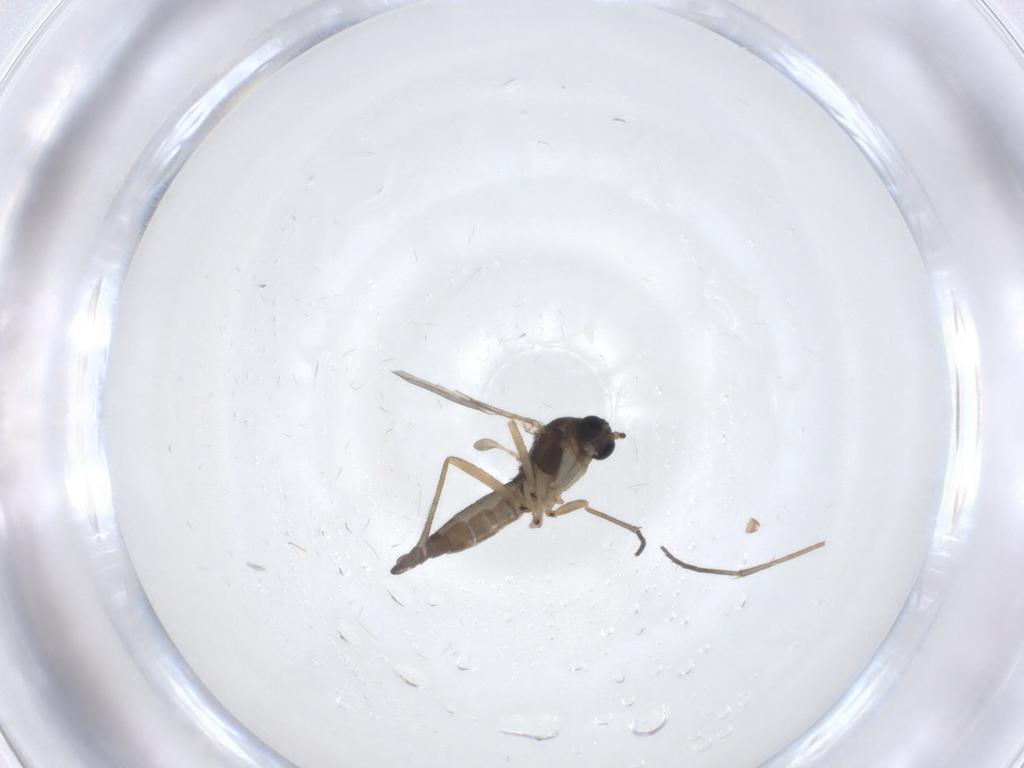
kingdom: Animalia
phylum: Arthropoda
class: Insecta
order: Diptera
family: Sciaridae
